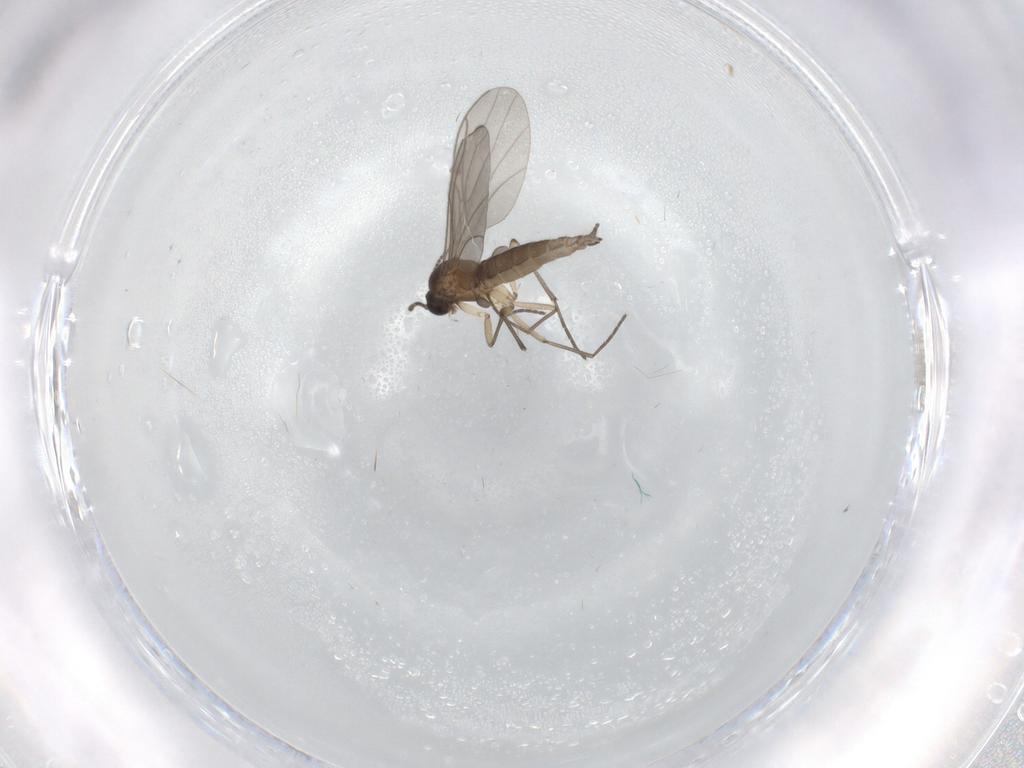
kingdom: Animalia
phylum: Arthropoda
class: Insecta
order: Diptera
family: Sciaridae
